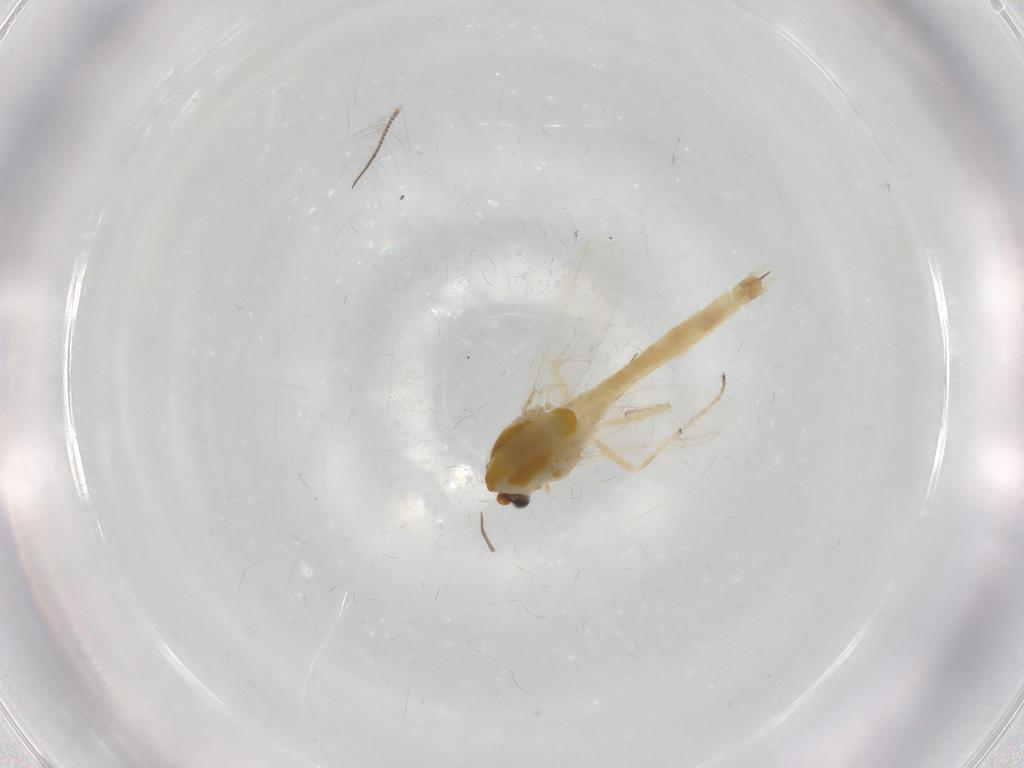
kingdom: Animalia
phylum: Arthropoda
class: Insecta
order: Diptera
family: Chironomidae
